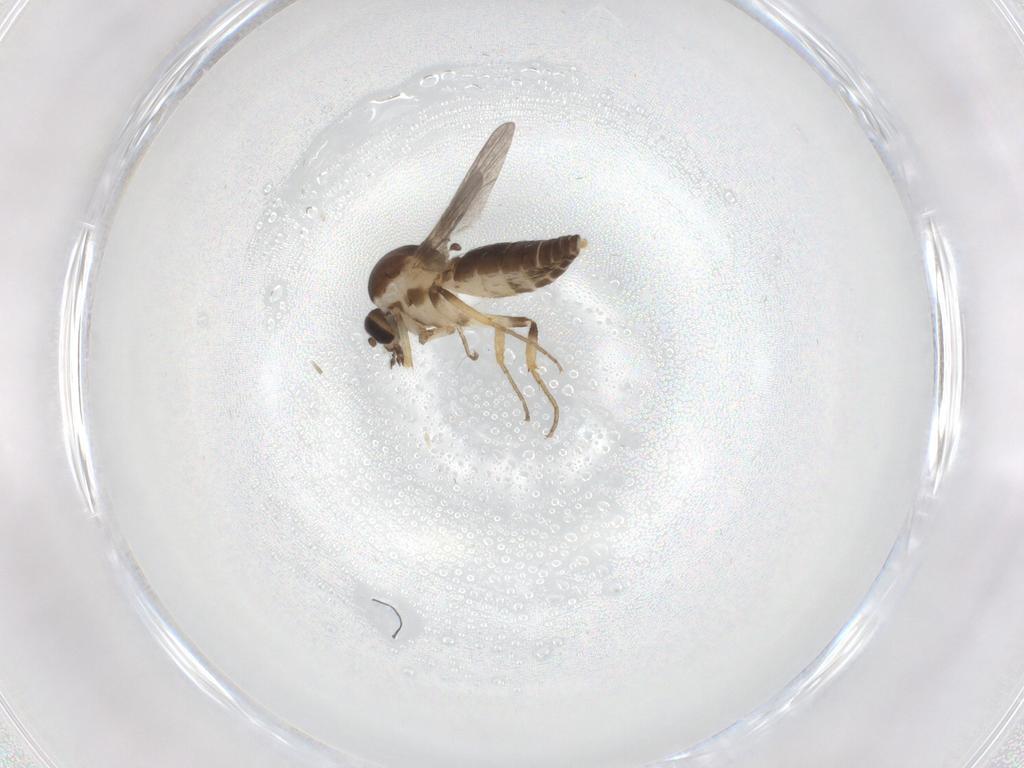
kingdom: Animalia
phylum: Arthropoda
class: Insecta
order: Diptera
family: Ceratopogonidae
